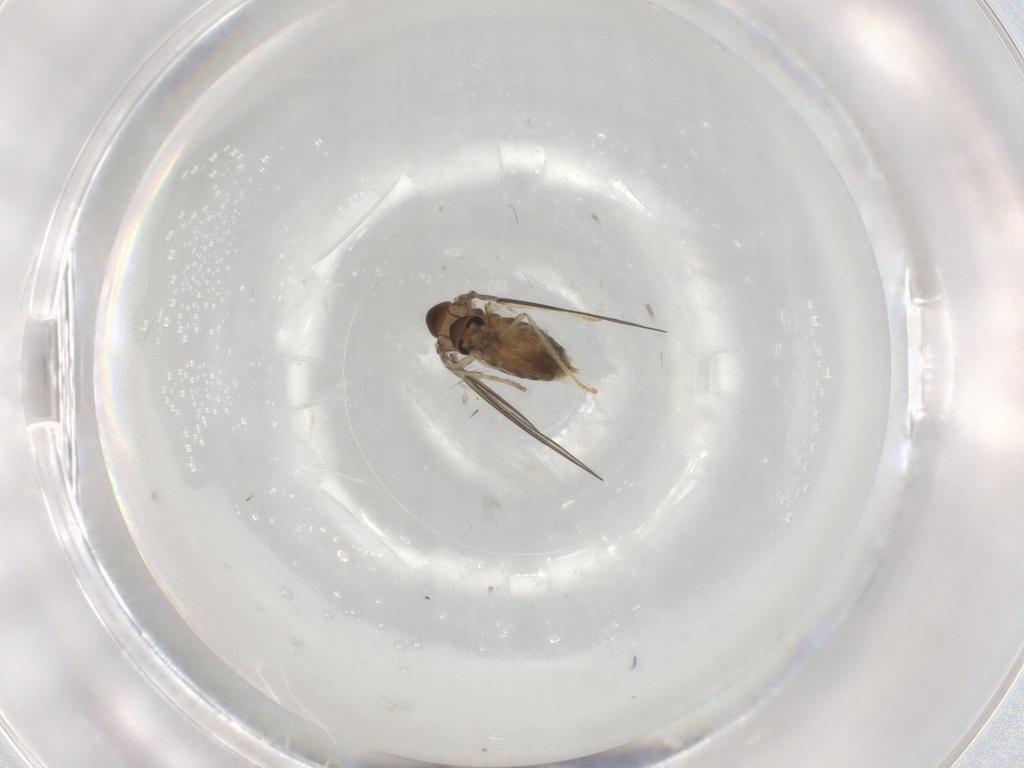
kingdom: Animalia
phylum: Arthropoda
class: Insecta
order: Diptera
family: Psychodidae
